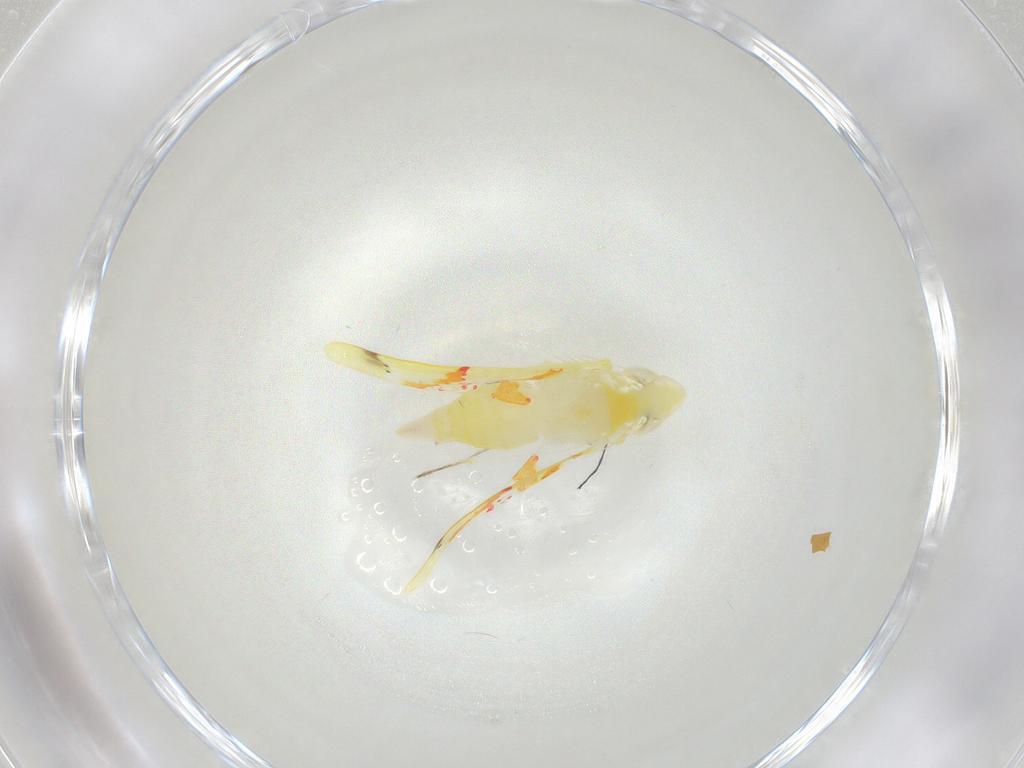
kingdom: Animalia
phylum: Arthropoda
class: Insecta
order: Hemiptera
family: Cicadellidae
